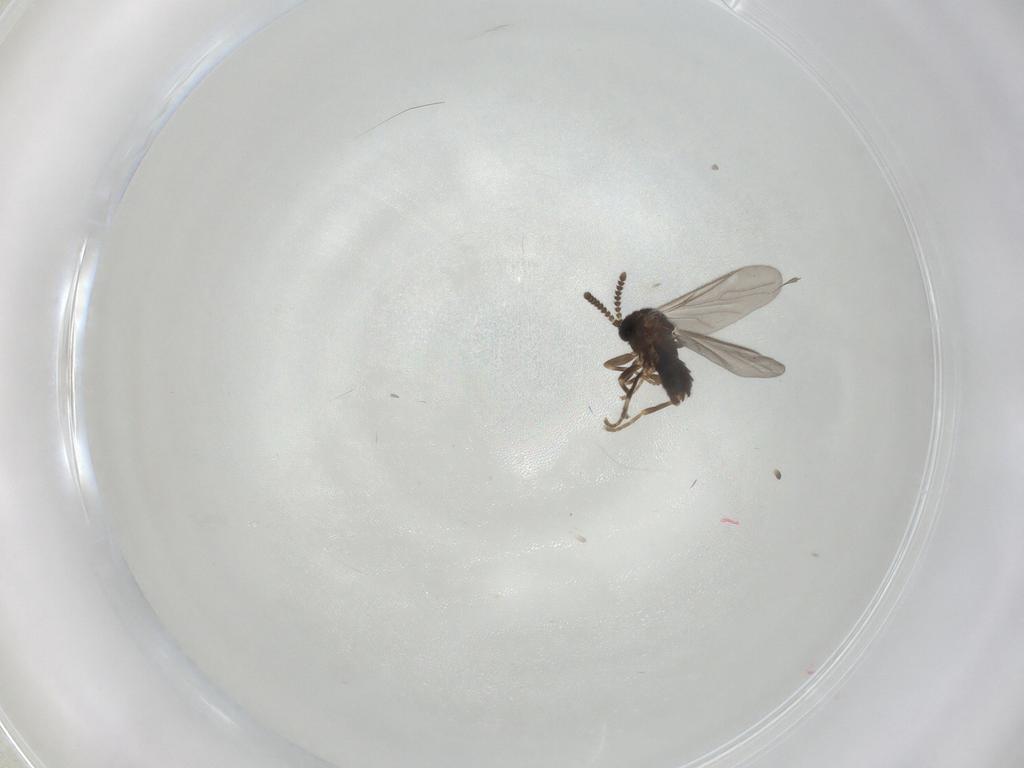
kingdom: Animalia
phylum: Arthropoda
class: Insecta
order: Diptera
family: Scatopsidae
